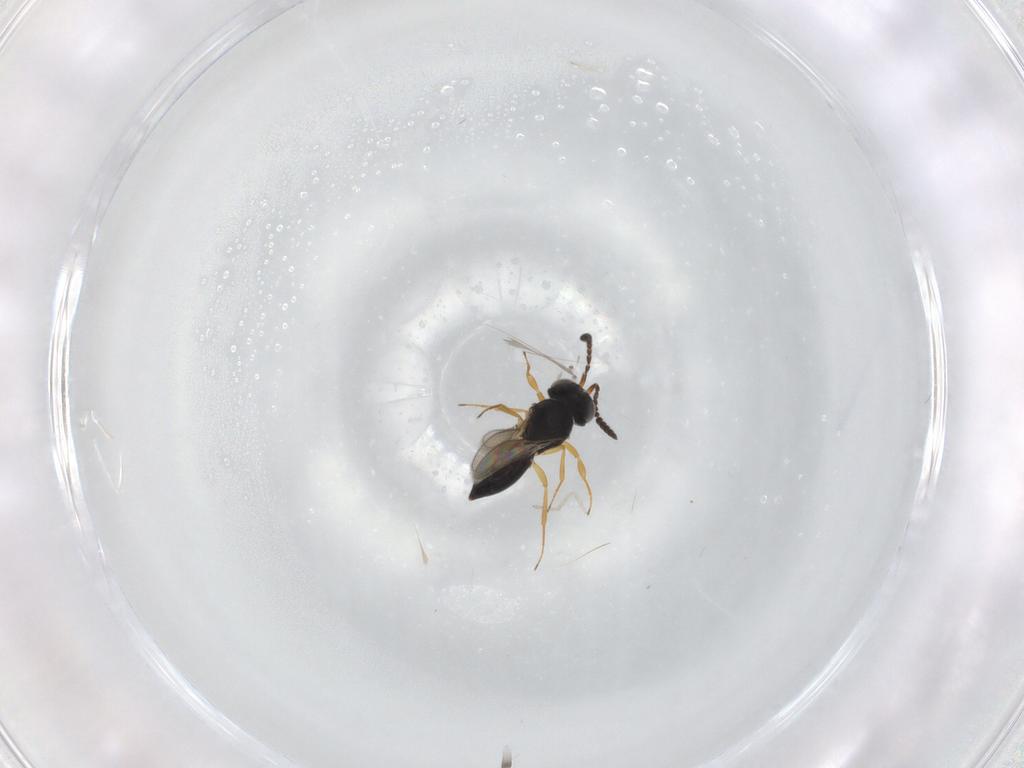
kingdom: Animalia
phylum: Arthropoda
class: Insecta
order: Hymenoptera
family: Scelionidae
